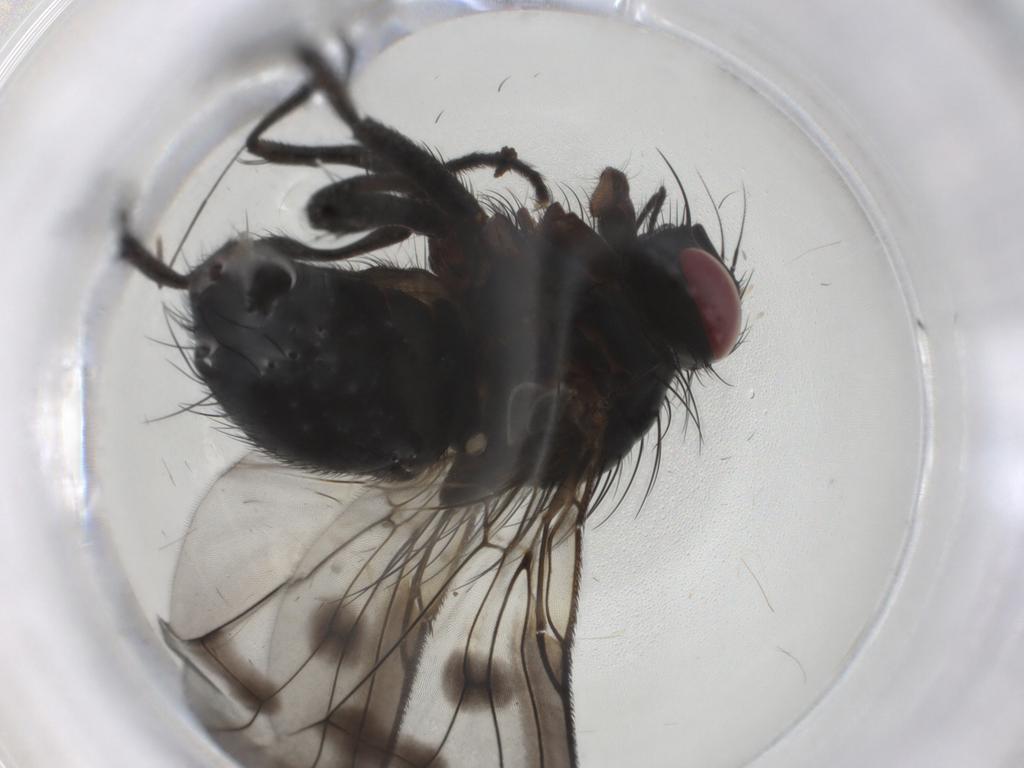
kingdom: Animalia
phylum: Arthropoda
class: Insecta
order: Diptera
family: Muscidae
